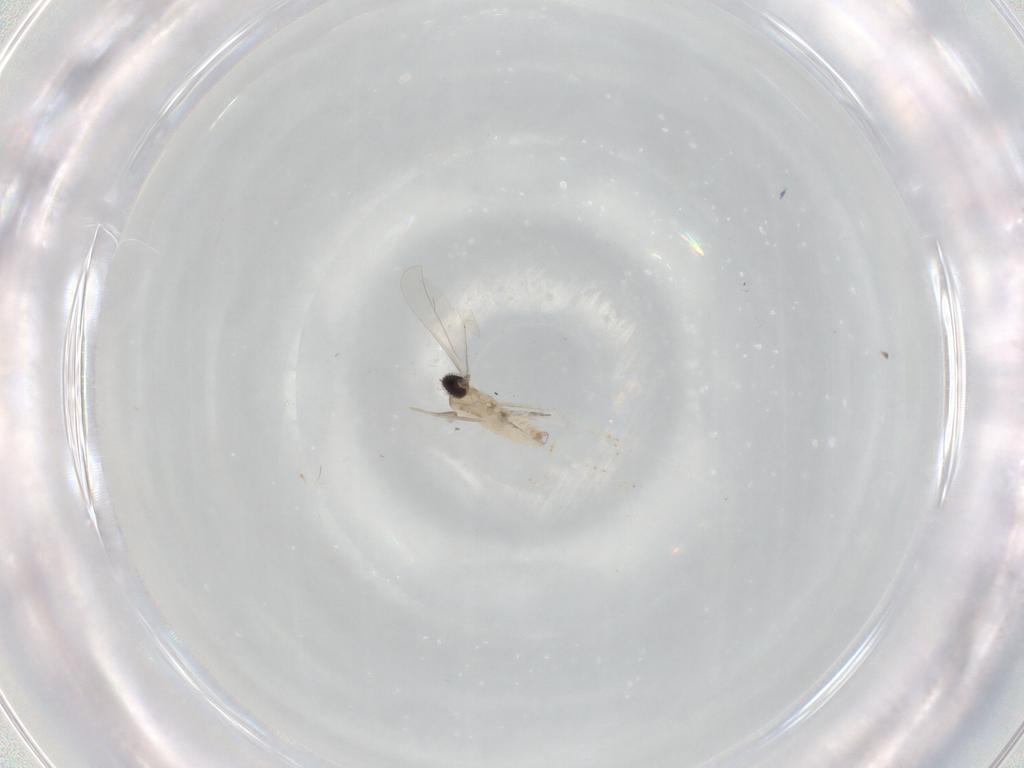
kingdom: Animalia
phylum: Arthropoda
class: Insecta
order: Diptera
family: Cecidomyiidae
